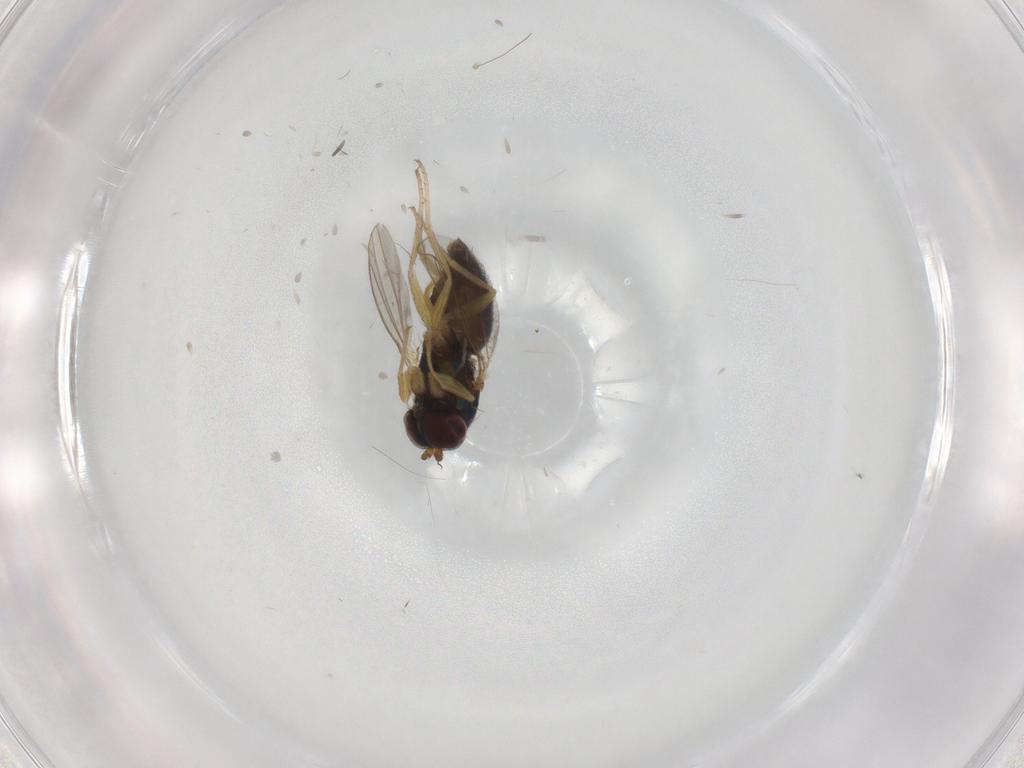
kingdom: Animalia
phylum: Arthropoda
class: Insecta
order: Diptera
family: Dolichopodidae
